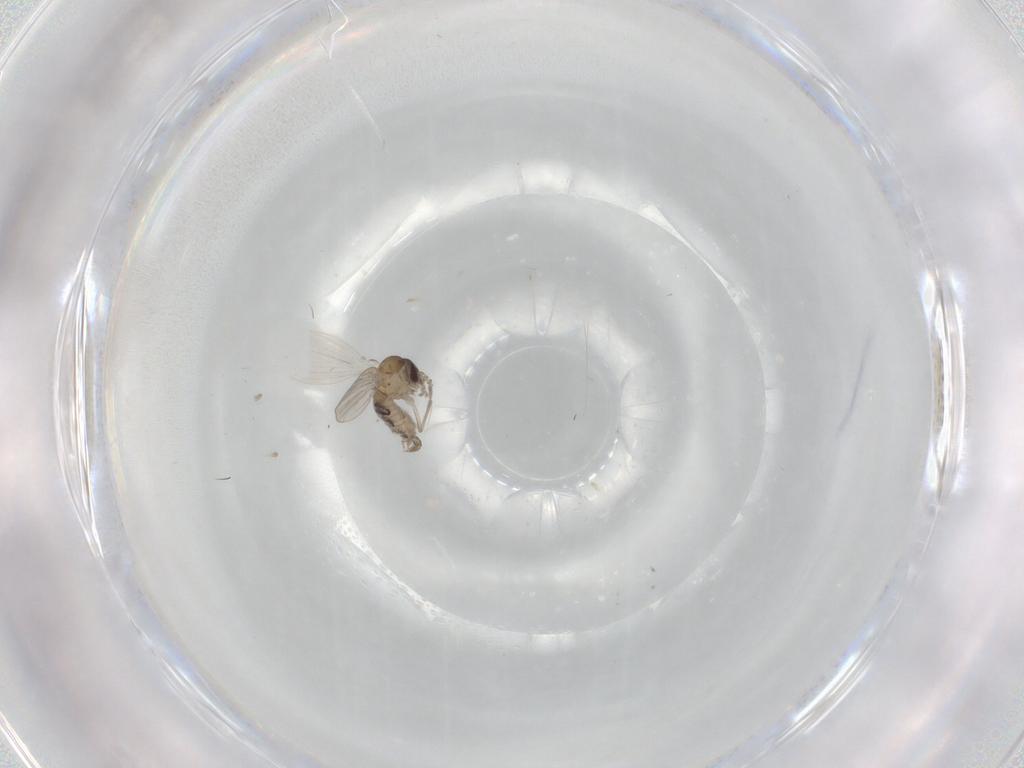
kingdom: Animalia
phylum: Arthropoda
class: Insecta
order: Diptera
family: Psychodidae
